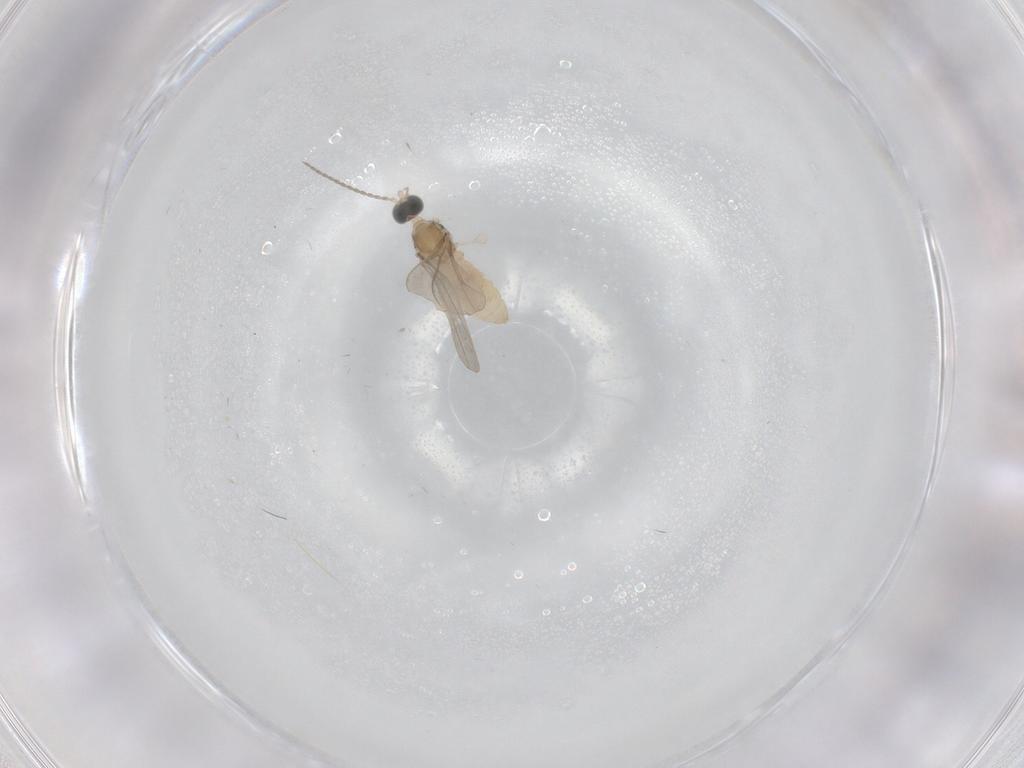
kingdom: Animalia
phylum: Arthropoda
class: Insecta
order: Diptera
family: Cecidomyiidae
